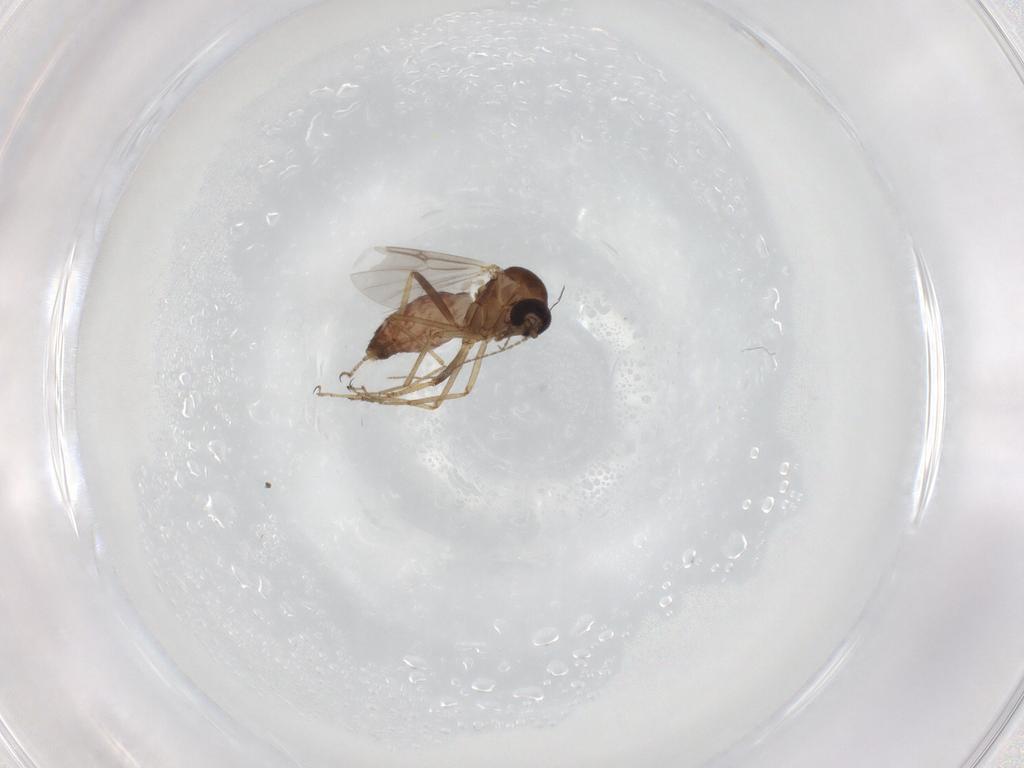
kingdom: Animalia
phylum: Arthropoda
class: Insecta
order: Diptera
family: Ceratopogonidae
